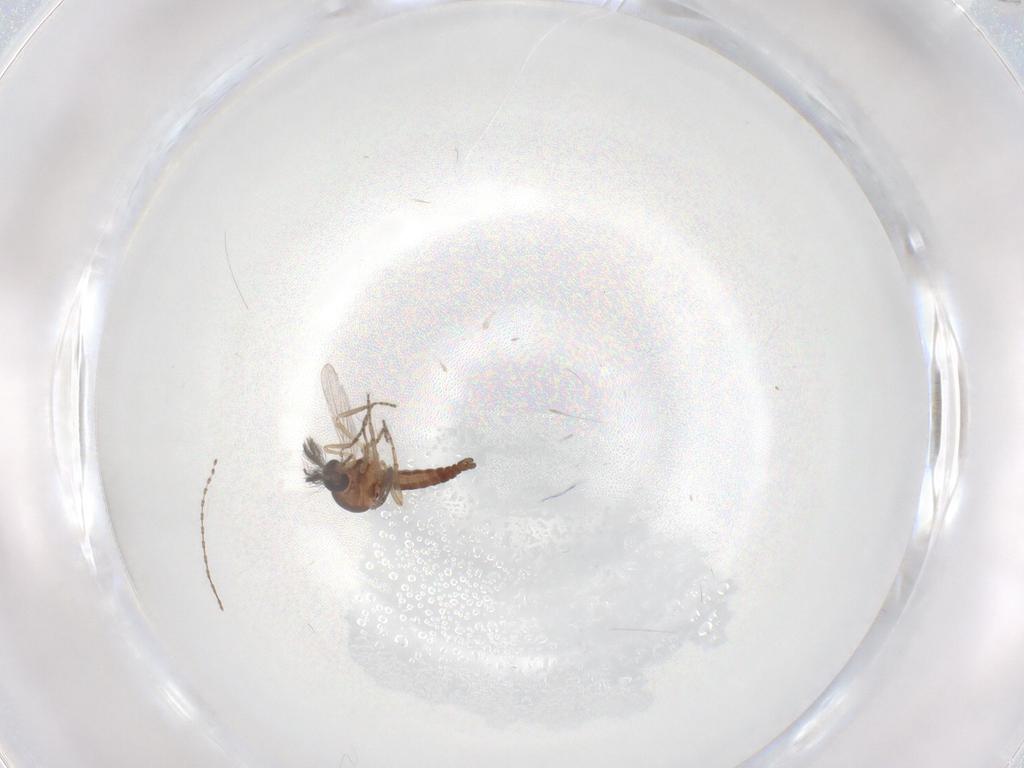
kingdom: Animalia
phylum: Arthropoda
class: Insecta
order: Diptera
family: Ceratopogonidae
